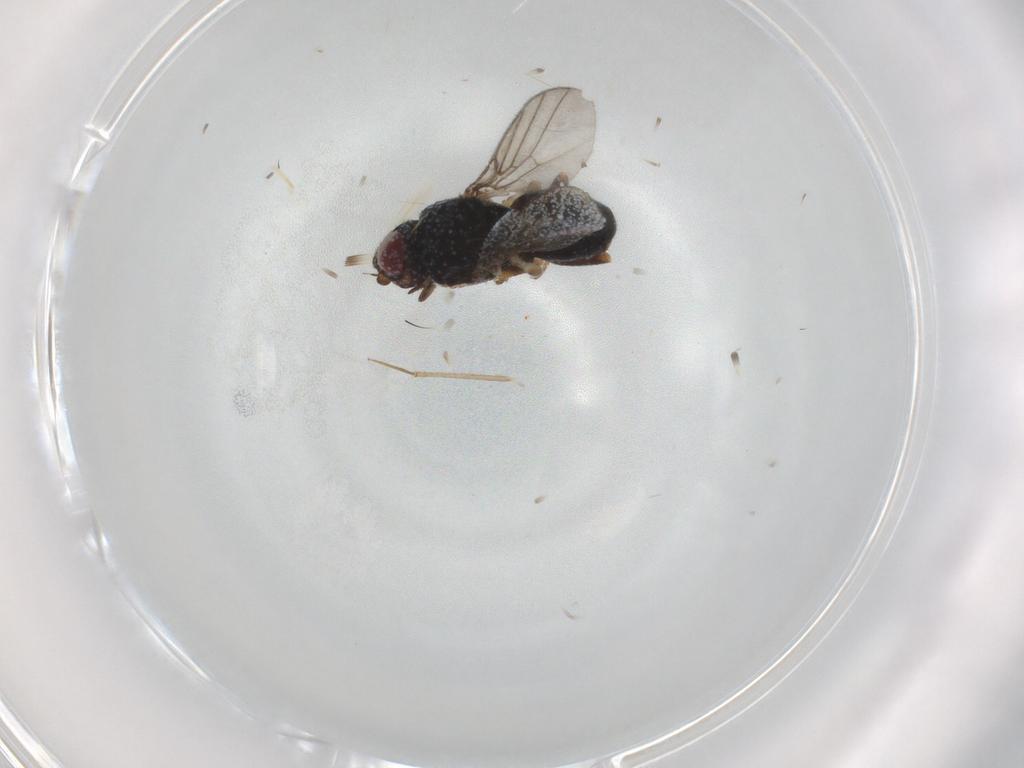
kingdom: Animalia
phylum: Arthropoda
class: Insecta
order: Diptera
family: Chloropidae
